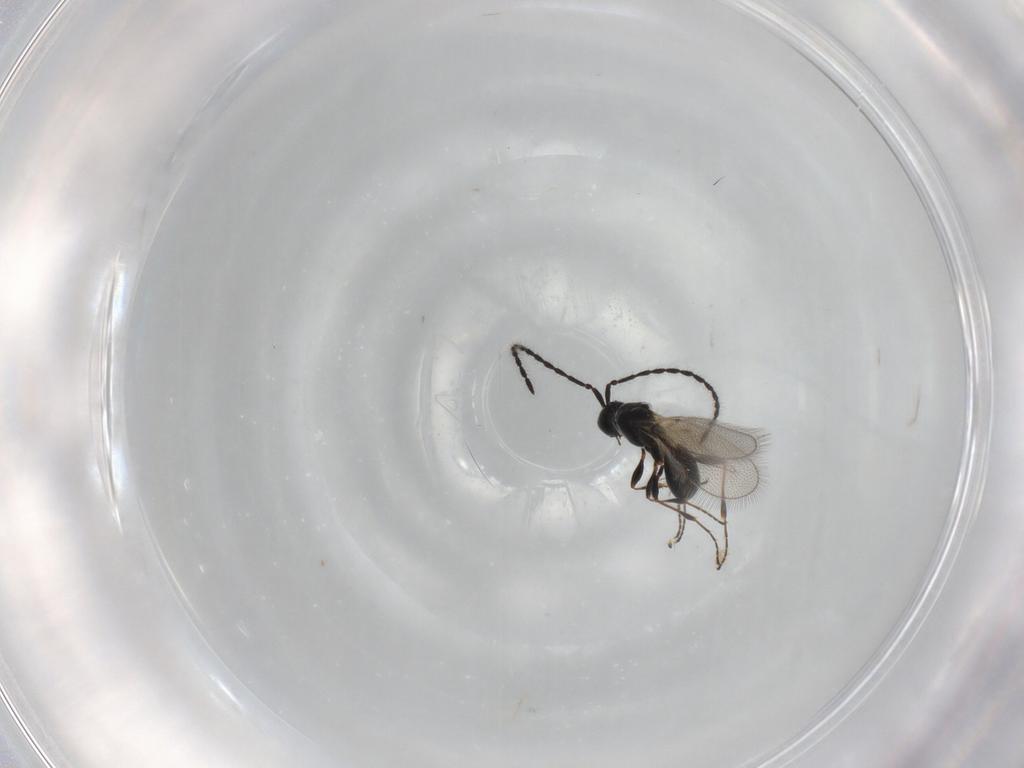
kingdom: Animalia
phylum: Arthropoda
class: Insecta
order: Hymenoptera
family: Diapriidae
